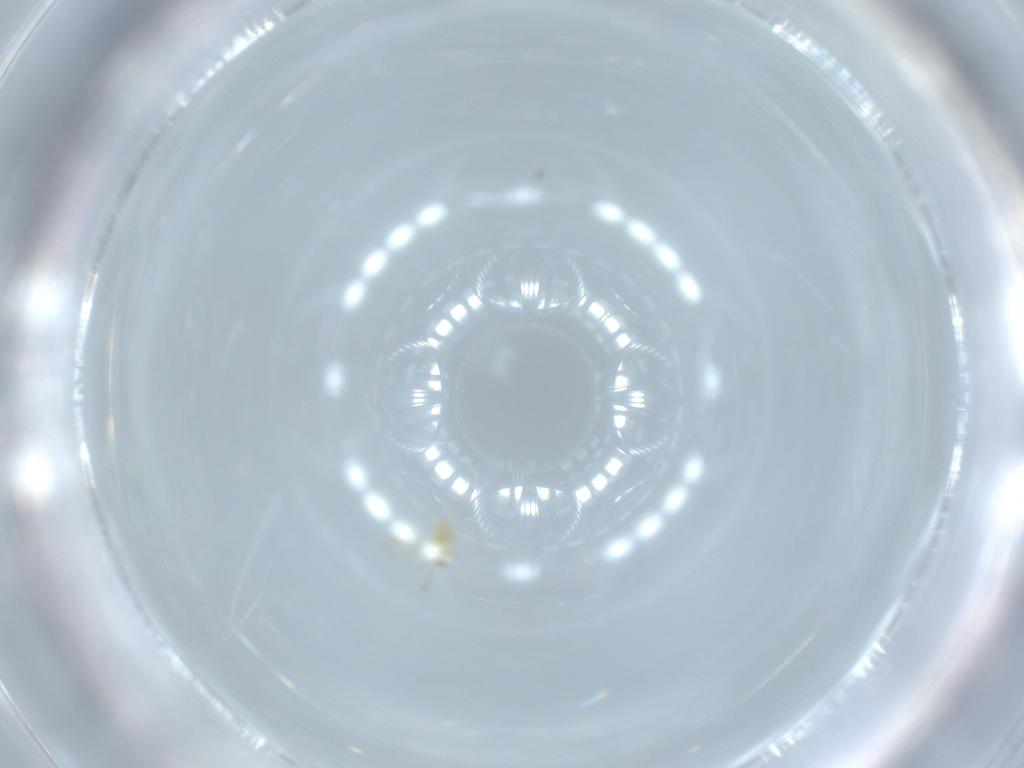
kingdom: Animalia
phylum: Arthropoda
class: Insecta
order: Hymenoptera
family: Aphelinidae
